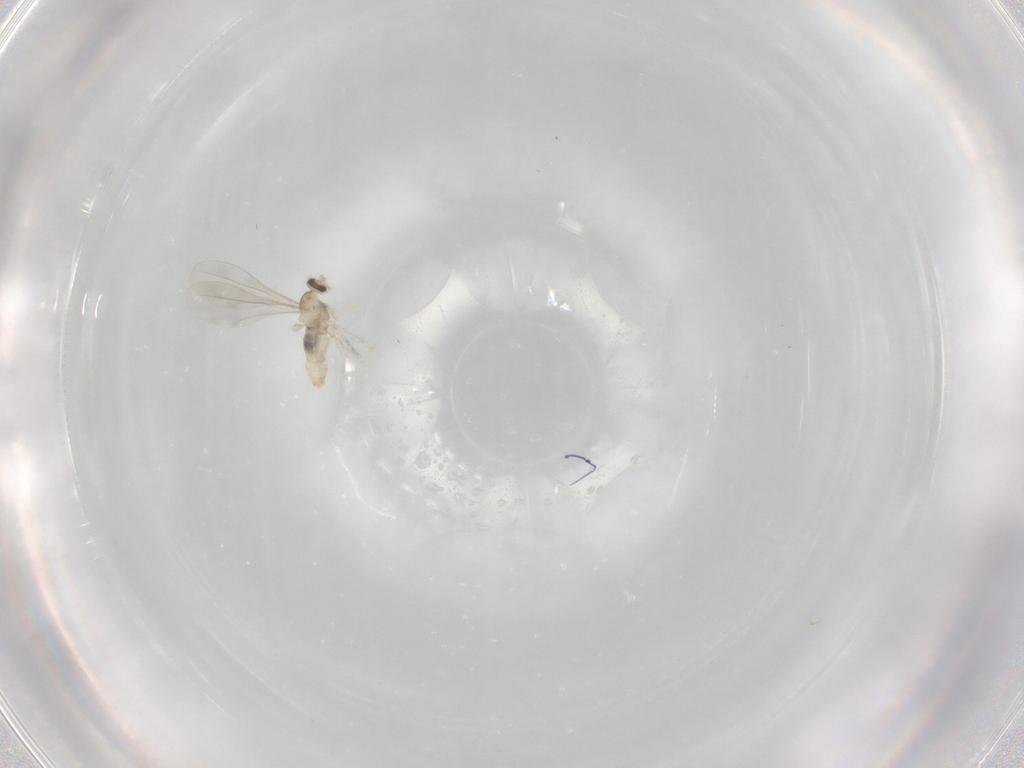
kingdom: Animalia
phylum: Arthropoda
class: Insecta
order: Diptera
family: Phoridae
